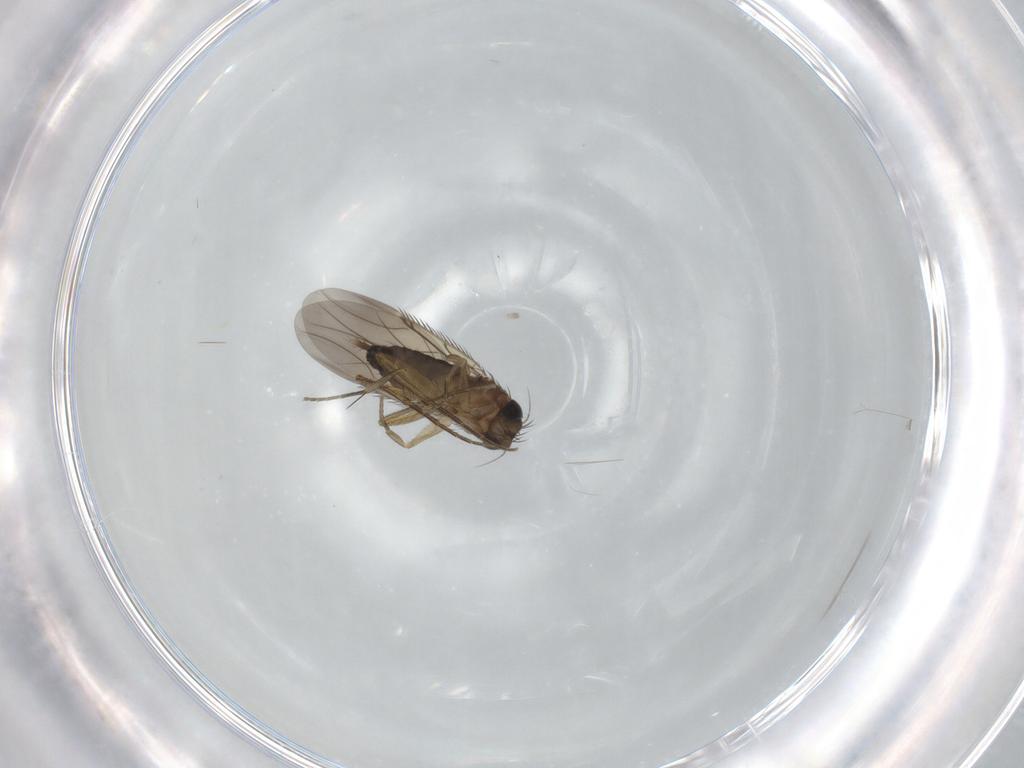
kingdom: Animalia
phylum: Arthropoda
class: Insecta
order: Diptera
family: Phoridae
